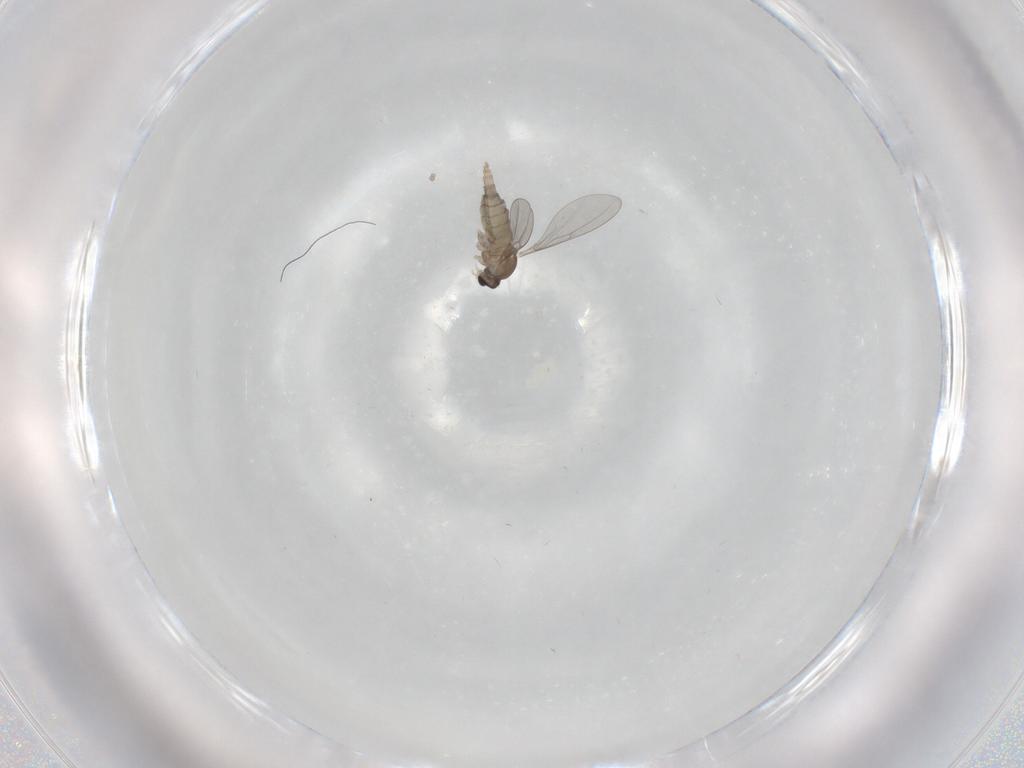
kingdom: Animalia
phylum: Arthropoda
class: Insecta
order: Diptera
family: Cecidomyiidae
